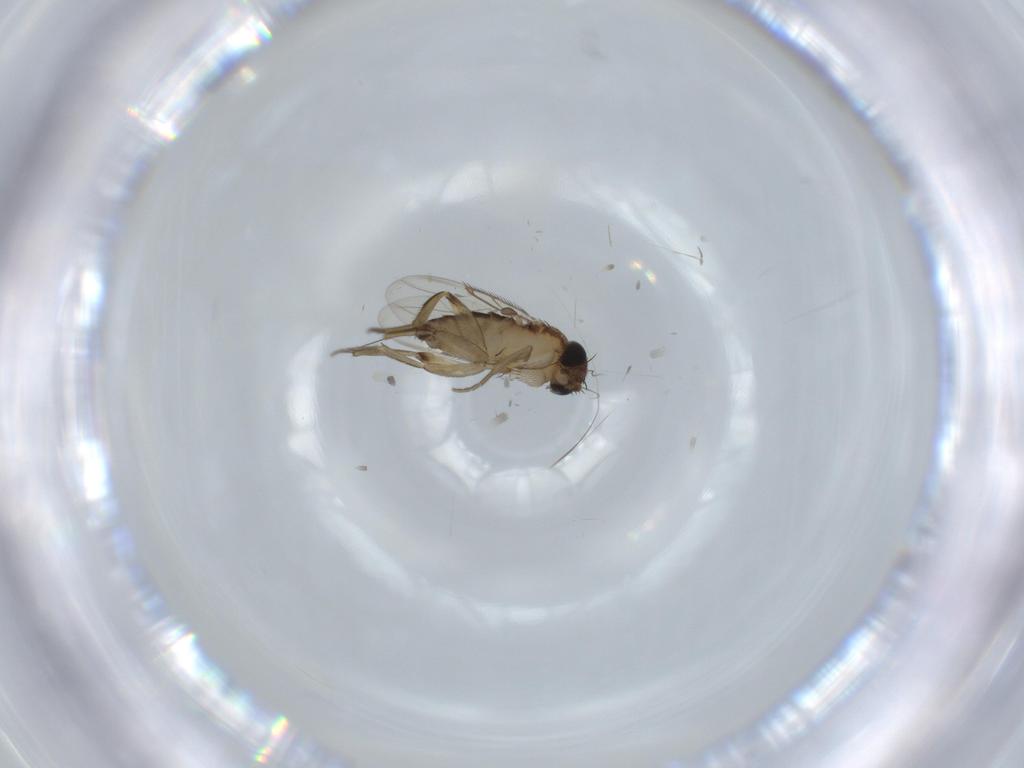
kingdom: Animalia
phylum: Arthropoda
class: Insecta
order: Diptera
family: Phoridae
